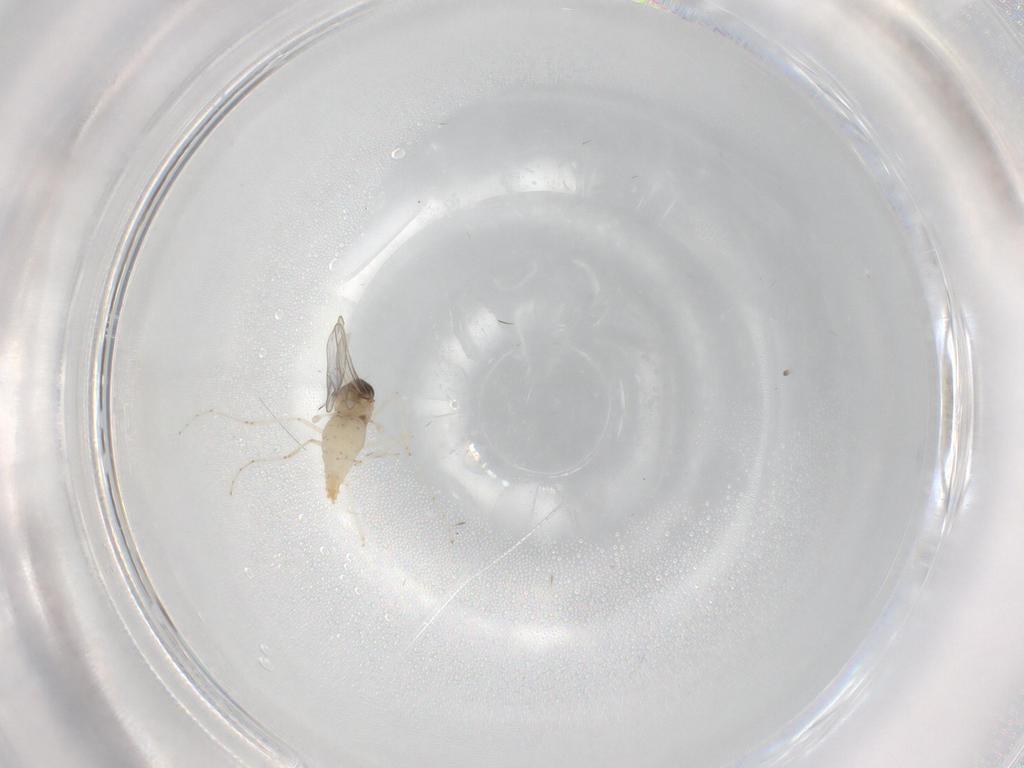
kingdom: Animalia
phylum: Arthropoda
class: Insecta
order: Diptera
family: Cecidomyiidae
